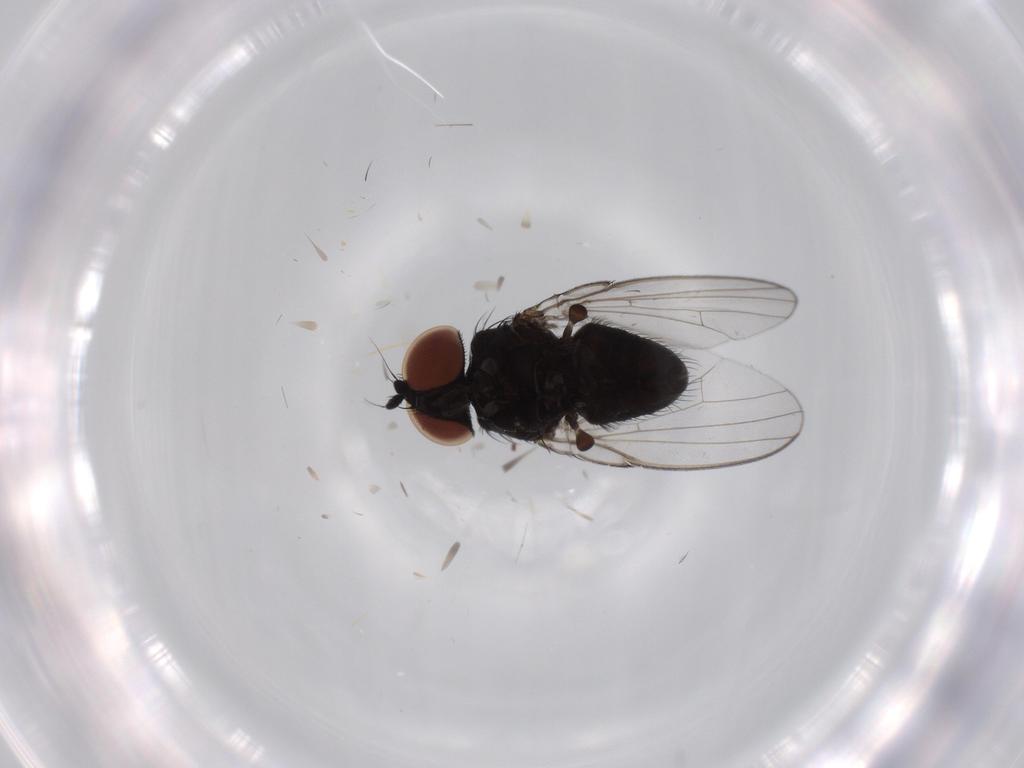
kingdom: Animalia
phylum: Arthropoda
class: Insecta
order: Diptera
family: Milichiidae
